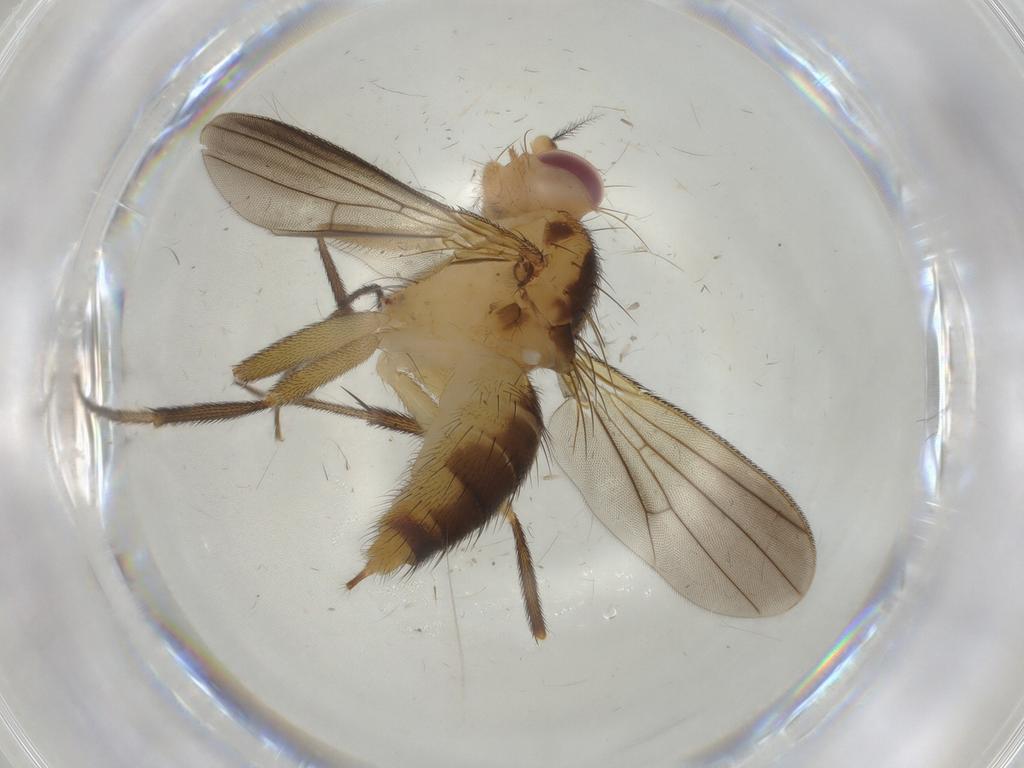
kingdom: Animalia
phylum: Arthropoda
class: Insecta
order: Diptera
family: Clusiidae
